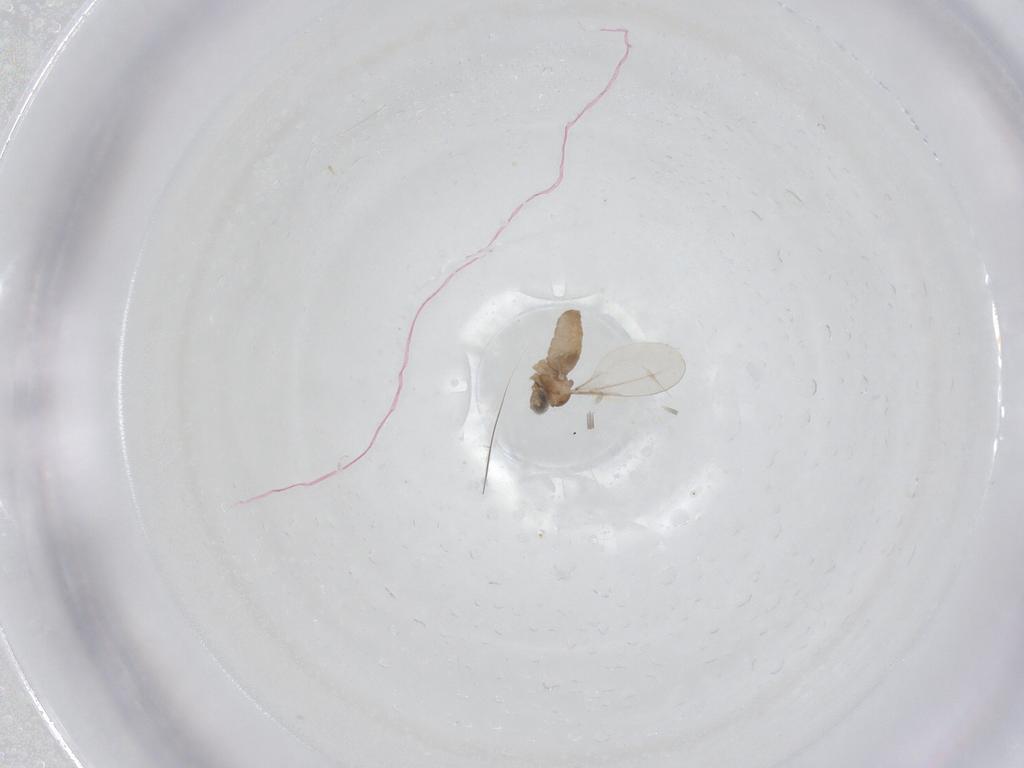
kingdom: Animalia
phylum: Arthropoda
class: Insecta
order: Diptera
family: Cecidomyiidae
